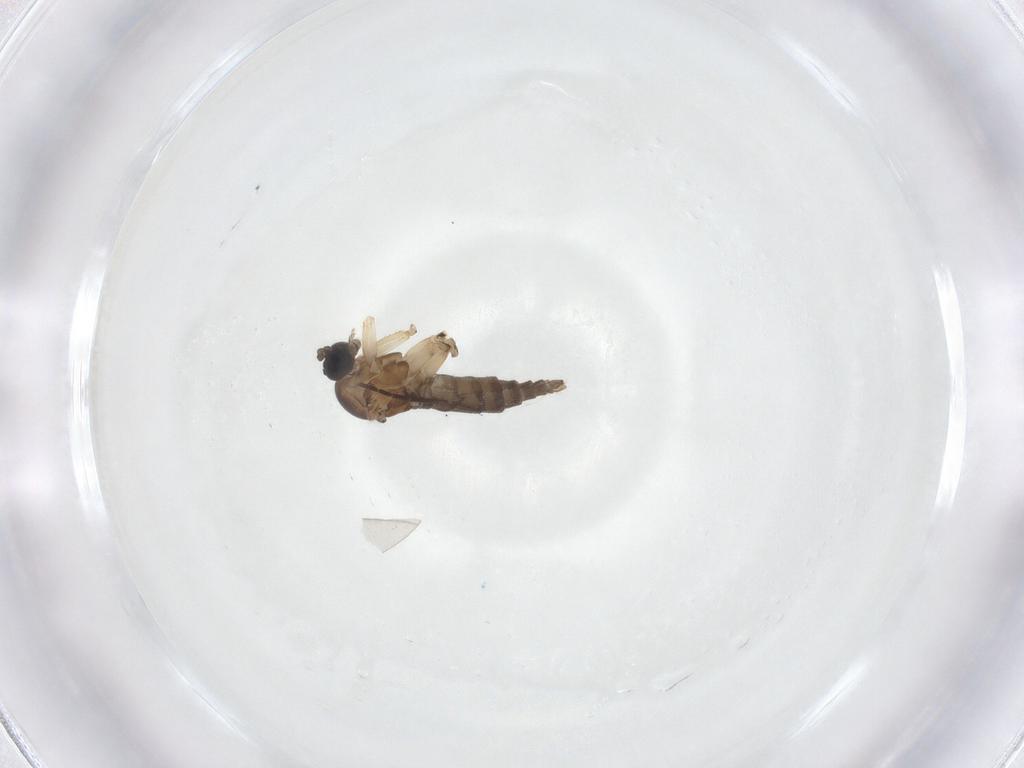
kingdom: Animalia
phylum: Arthropoda
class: Insecta
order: Diptera
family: Sciaridae
